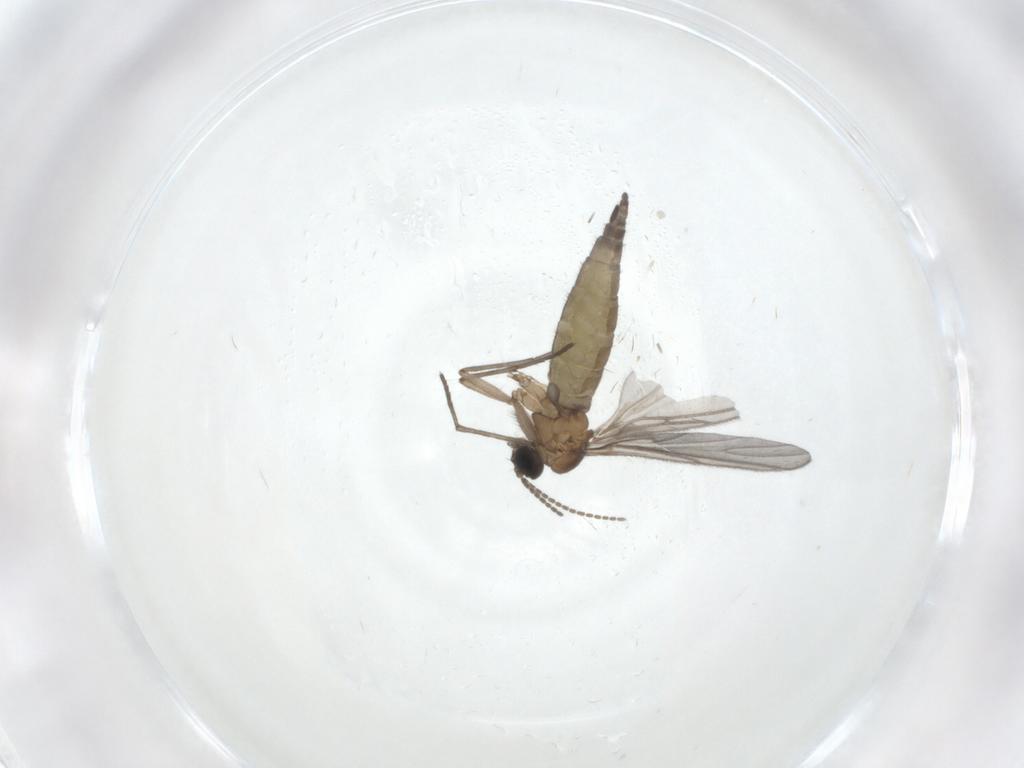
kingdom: Animalia
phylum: Arthropoda
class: Insecta
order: Diptera
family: Sciaridae
